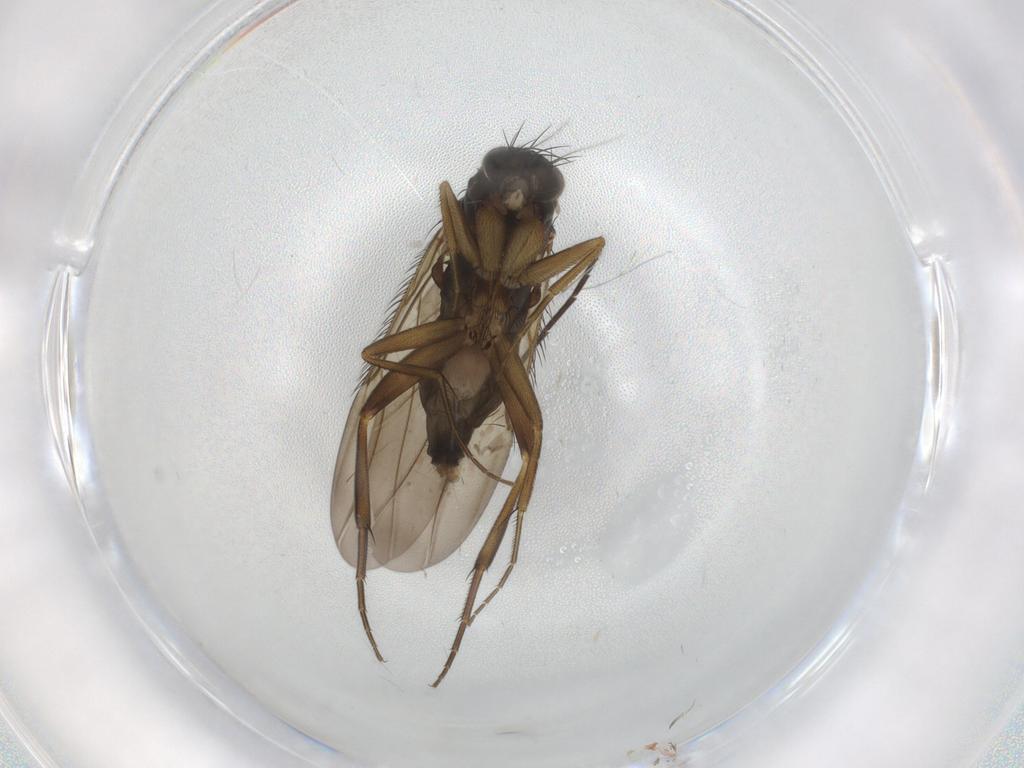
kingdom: Animalia
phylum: Arthropoda
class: Insecta
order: Diptera
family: Phoridae
